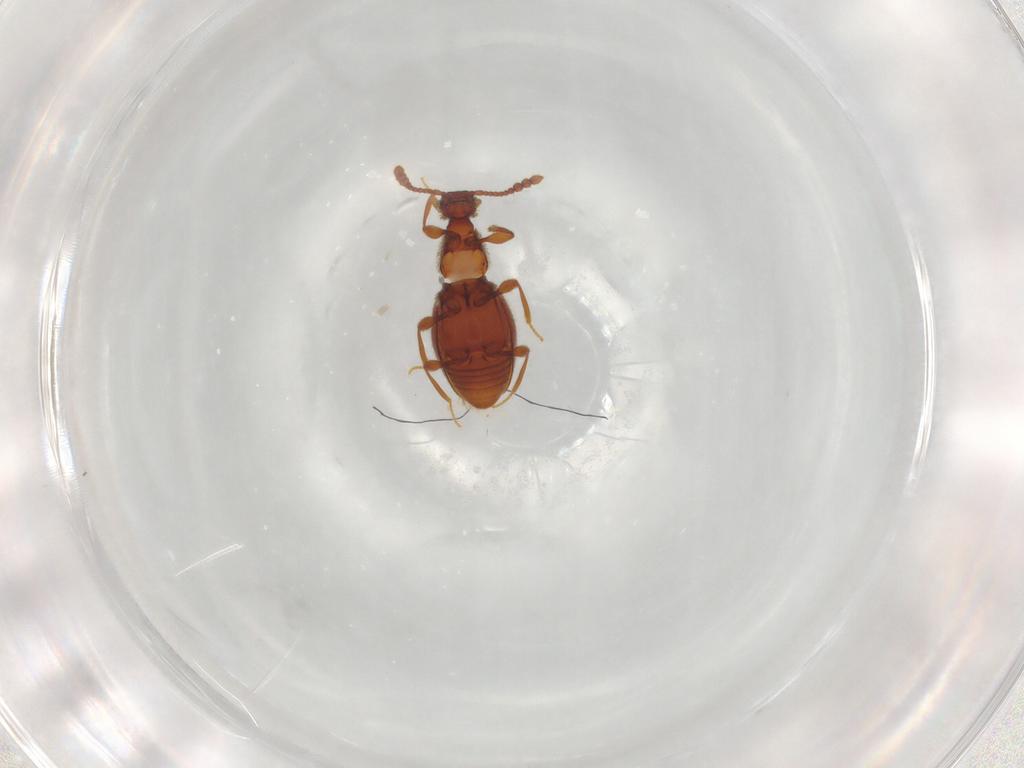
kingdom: Animalia
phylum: Arthropoda
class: Insecta
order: Coleoptera
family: Staphylinidae
